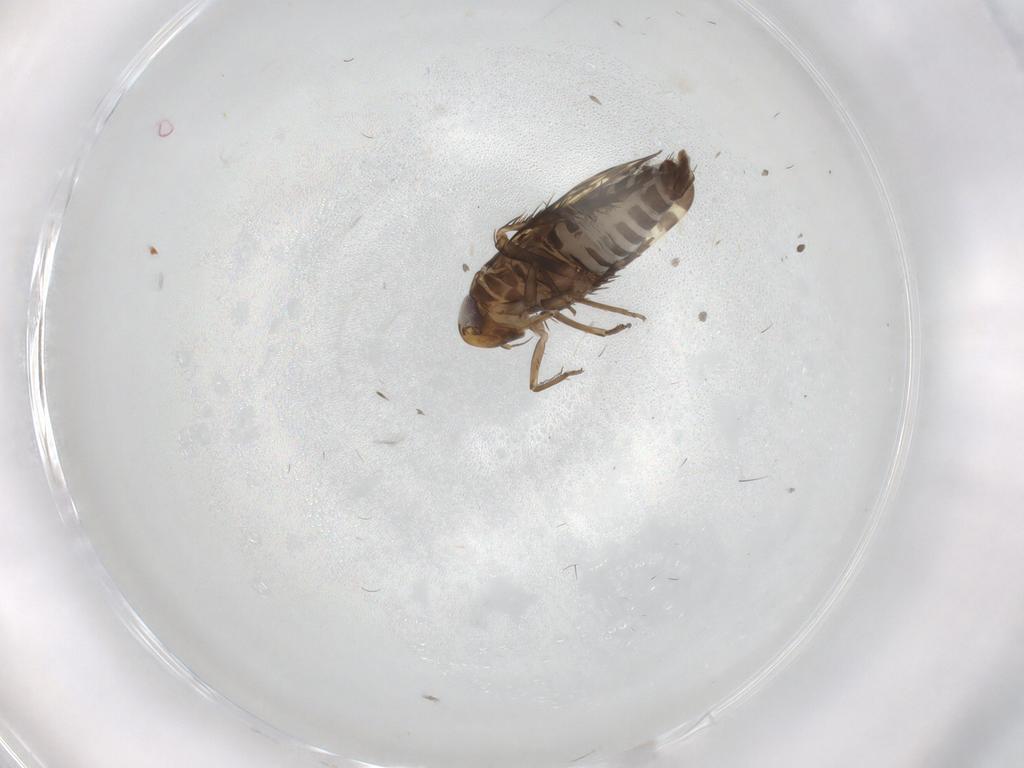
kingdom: Animalia
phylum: Arthropoda
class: Insecta
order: Hemiptera
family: Cicadellidae
